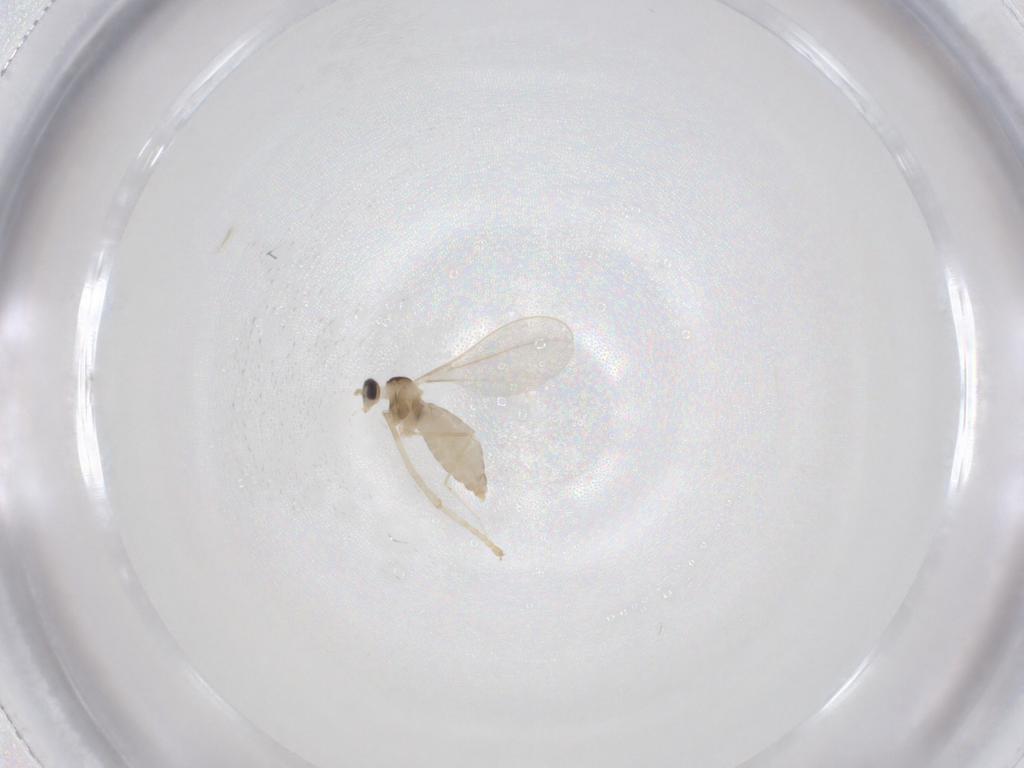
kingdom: Animalia
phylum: Arthropoda
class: Insecta
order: Diptera
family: Cecidomyiidae
